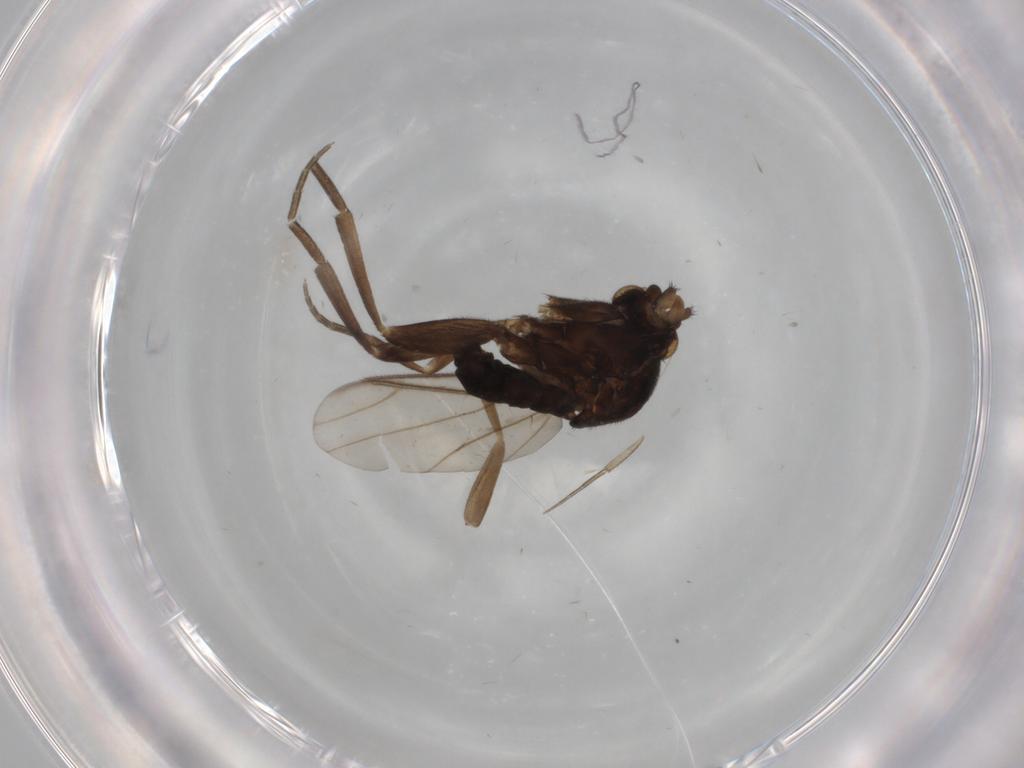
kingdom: Animalia
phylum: Arthropoda
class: Insecta
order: Diptera
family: Phoridae
